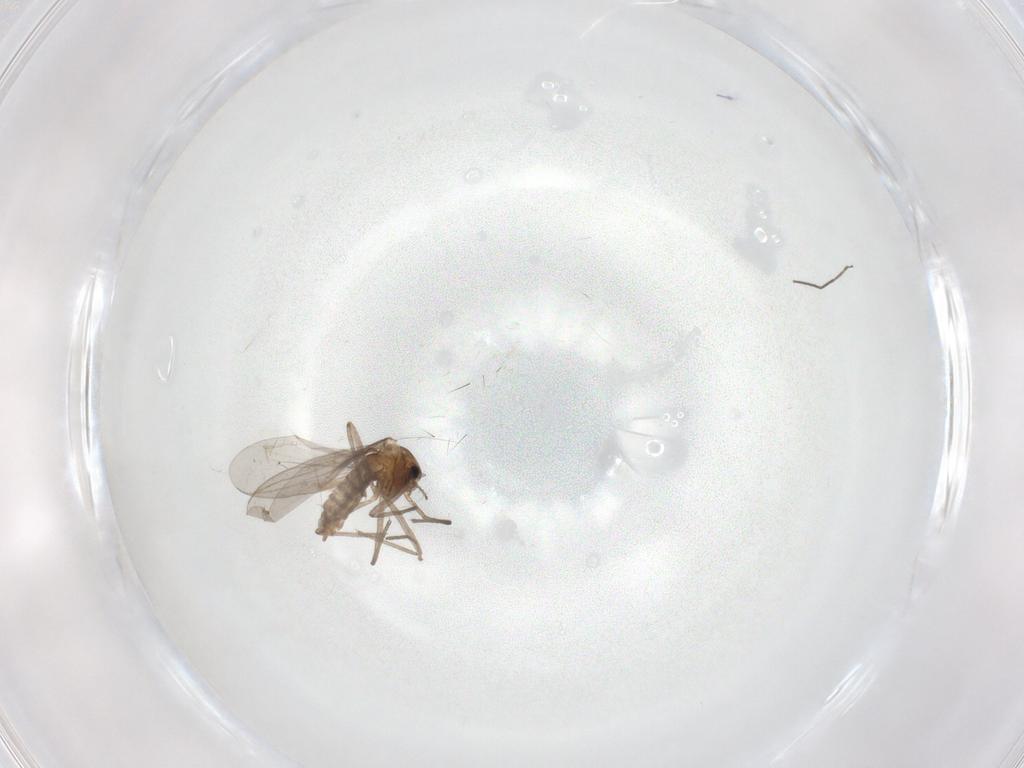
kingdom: Animalia
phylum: Arthropoda
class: Insecta
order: Diptera
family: Chironomidae
